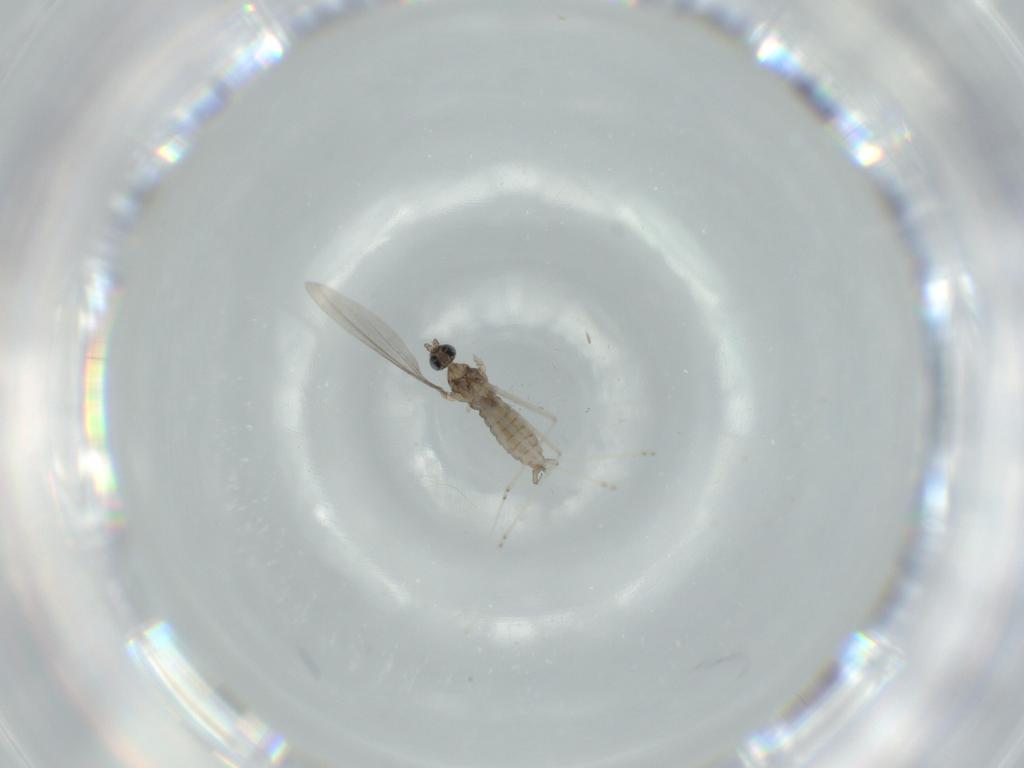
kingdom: Animalia
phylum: Arthropoda
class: Insecta
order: Diptera
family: Cecidomyiidae
